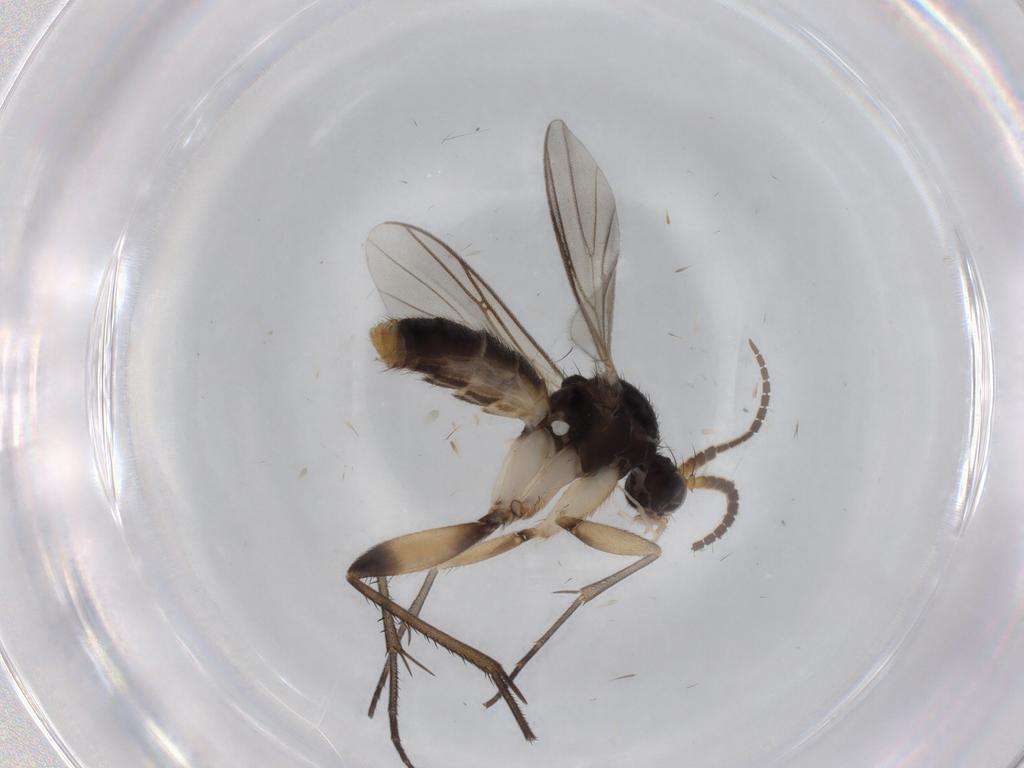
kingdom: Animalia
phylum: Arthropoda
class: Insecta
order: Diptera
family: Mycetophilidae
